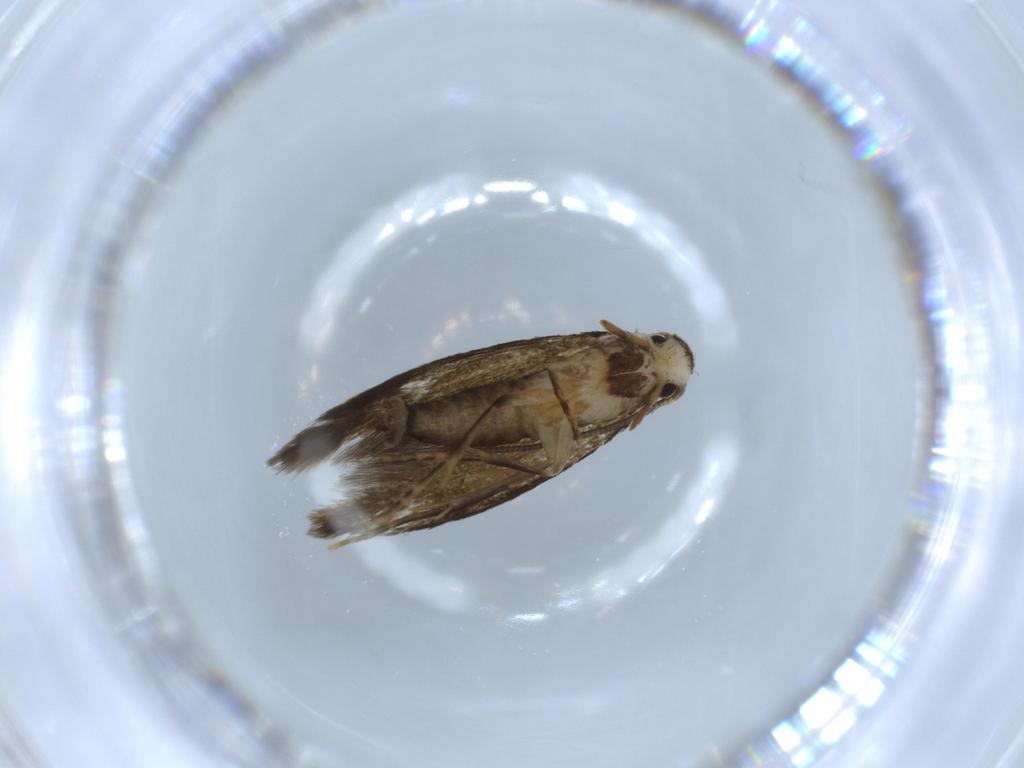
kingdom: Animalia
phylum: Arthropoda
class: Insecta
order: Lepidoptera
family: Tineidae
